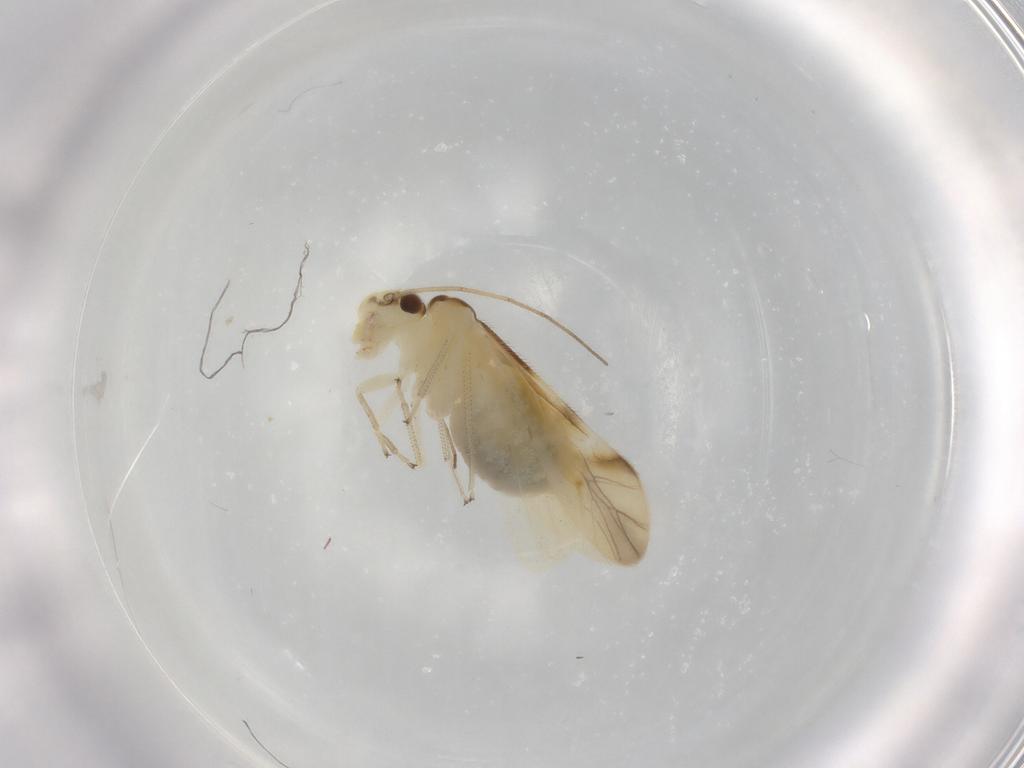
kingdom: Animalia
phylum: Arthropoda
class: Insecta
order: Psocodea
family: Caeciliusidae
